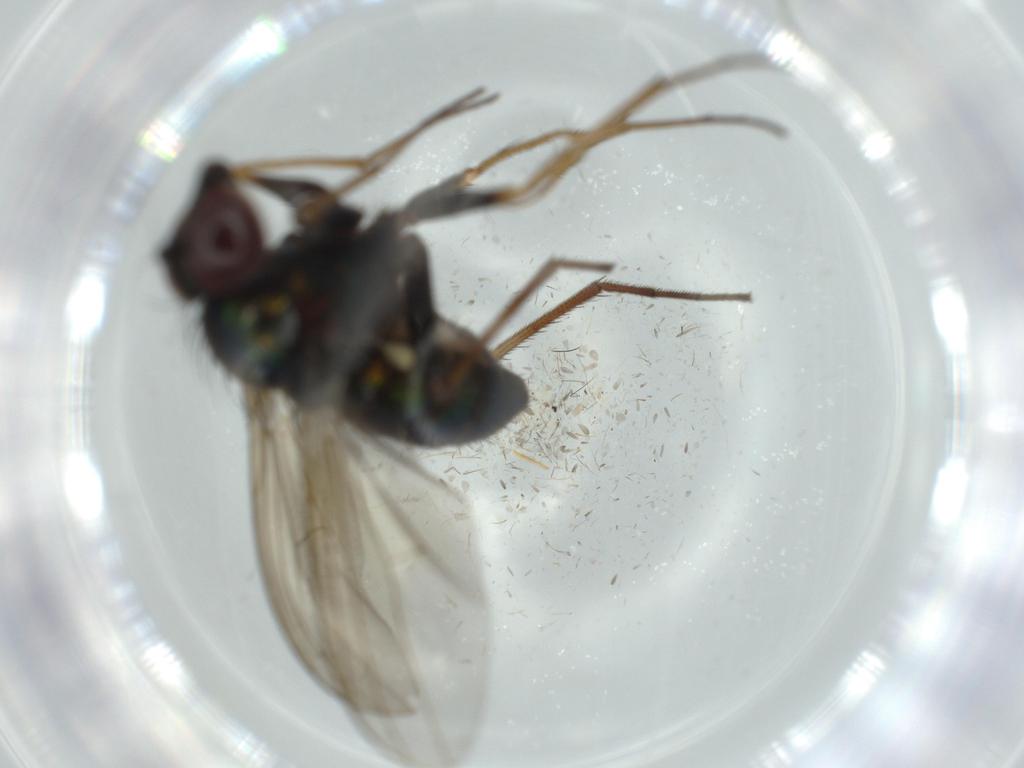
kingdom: Animalia
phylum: Arthropoda
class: Insecta
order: Diptera
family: Dolichopodidae
